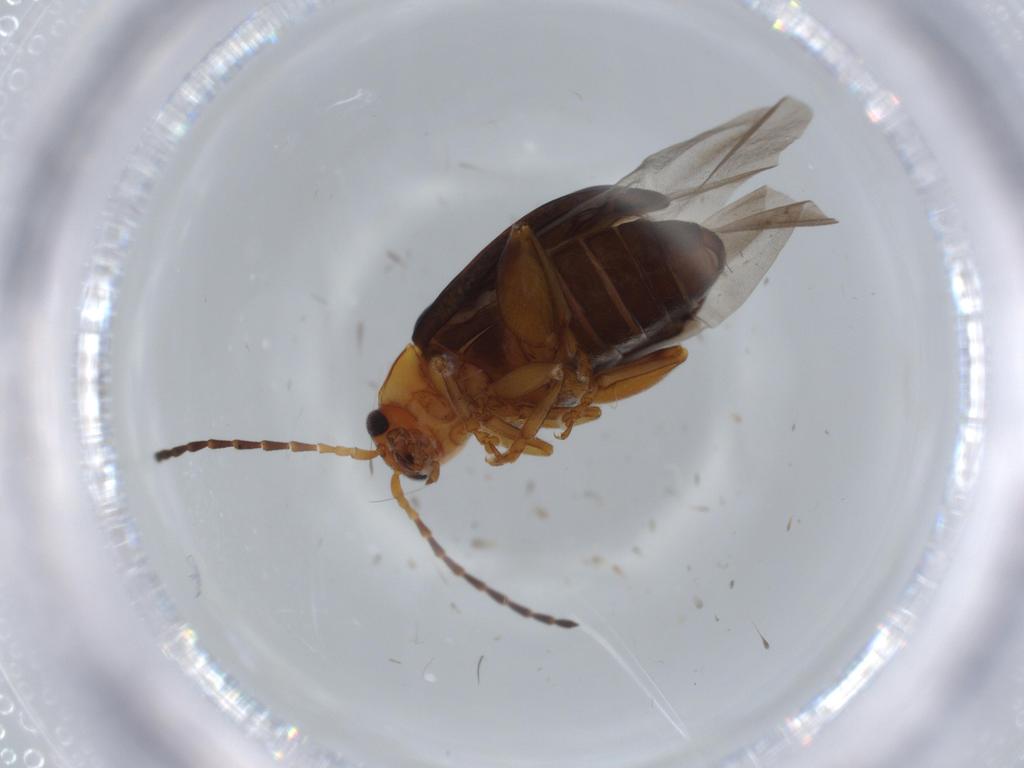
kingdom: Animalia
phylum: Arthropoda
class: Insecta
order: Coleoptera
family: Chrysomelidae
